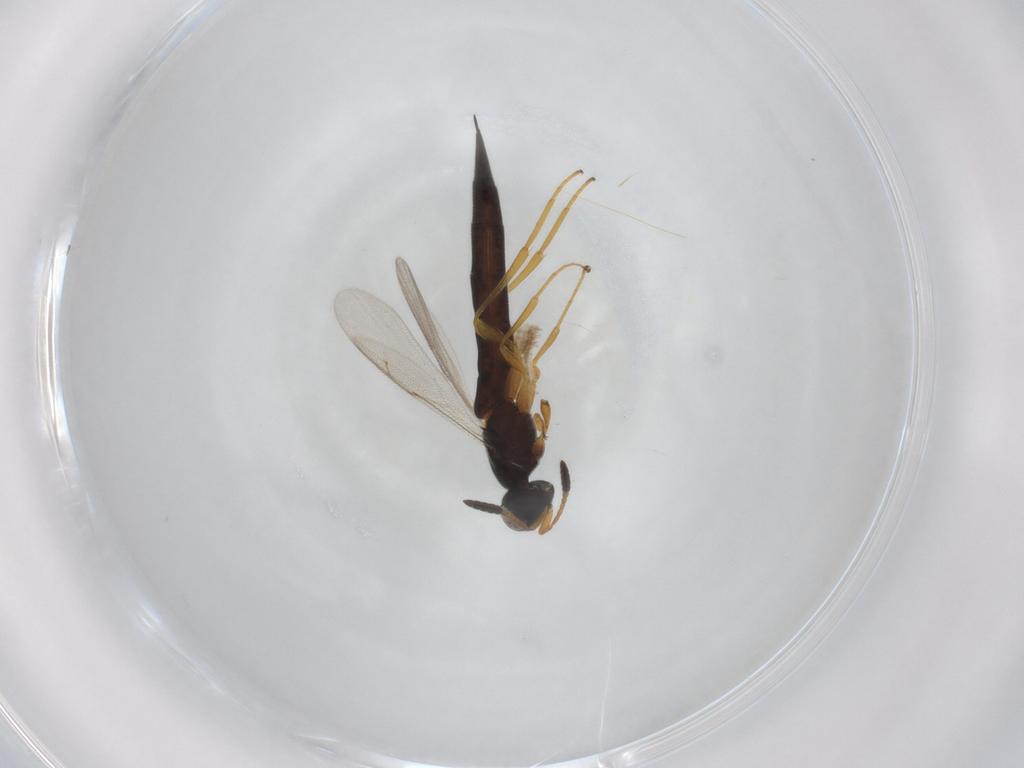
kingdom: Animalia
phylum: Arthropoda
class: Insecta
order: Hymenoptera
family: Scelionidae
